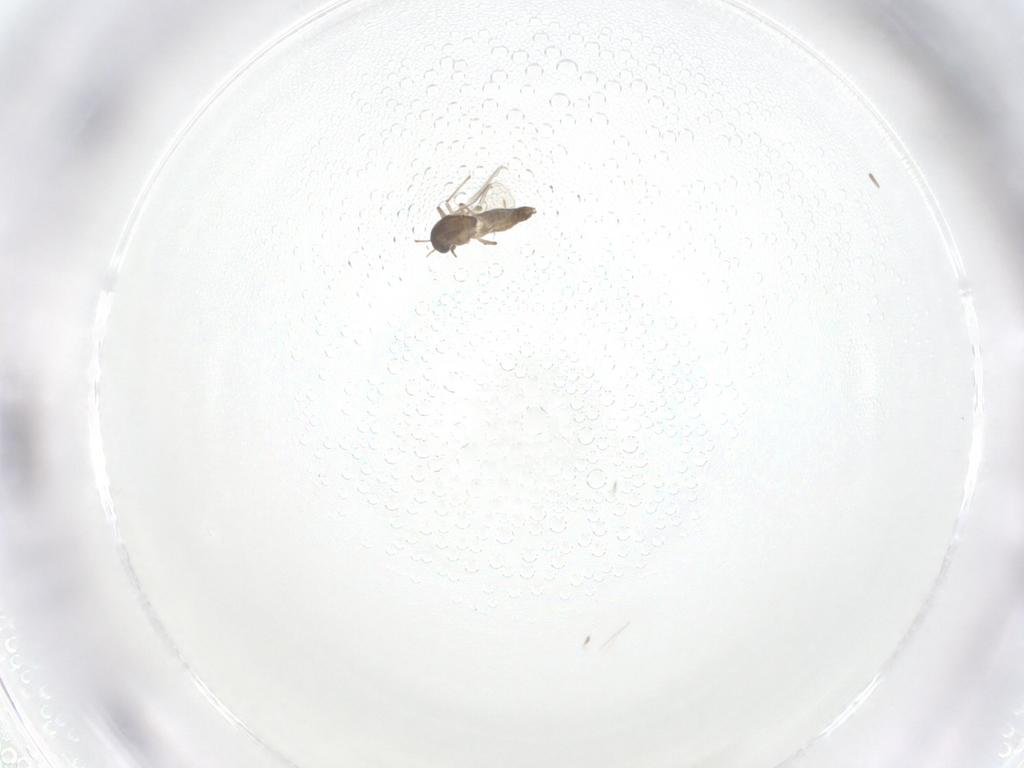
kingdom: Animalia
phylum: Arthropoda
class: Insecta
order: Diptera
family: Chironomidae
